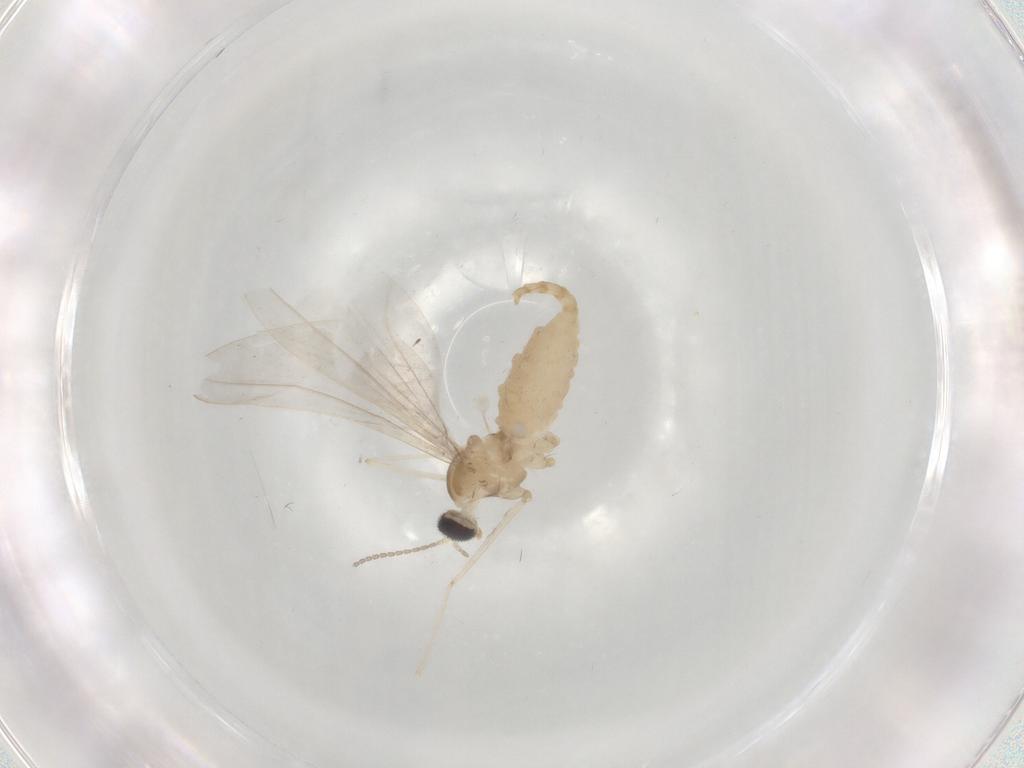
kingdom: Animalia
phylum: Arthropoda
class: Insecta
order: Diptera
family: Cecidomyiidae
